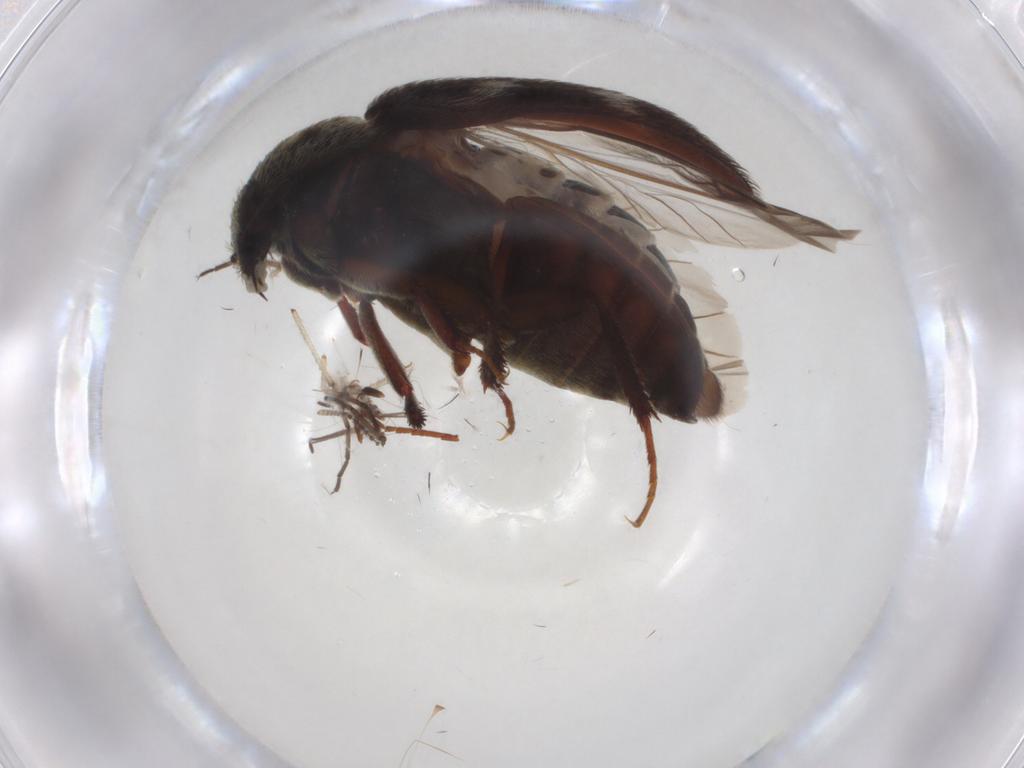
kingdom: Animalia
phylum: Arthropoda
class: Insecta
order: Coleoptera
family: Dermestidae
